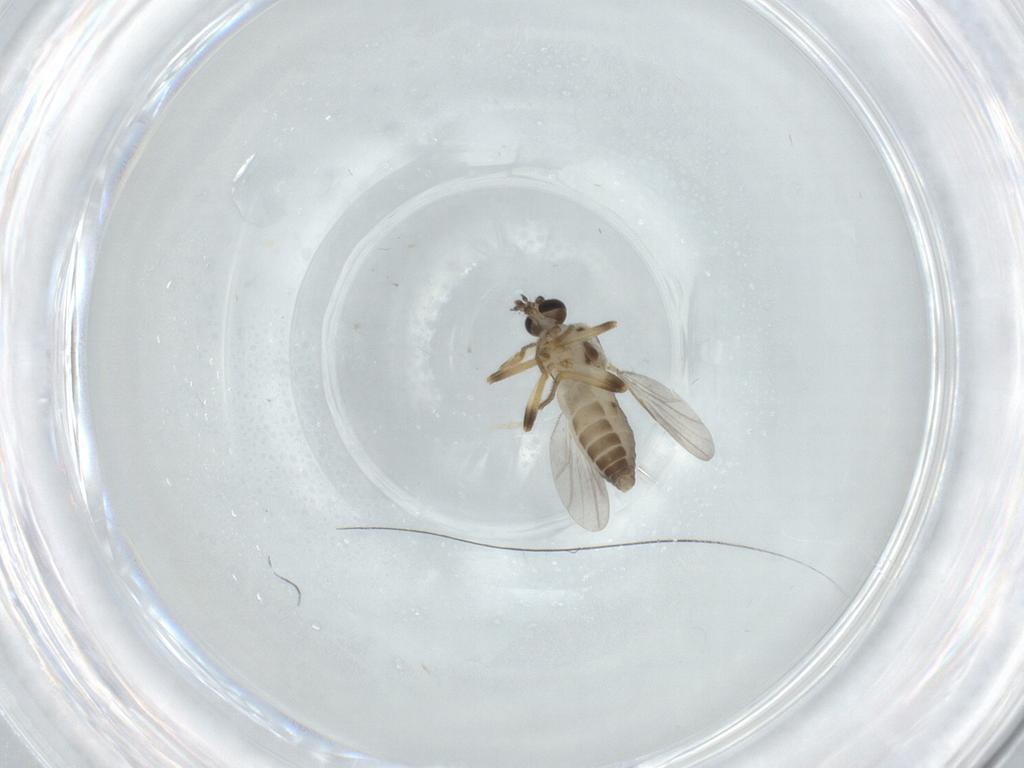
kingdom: Animalia
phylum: Arthropoda
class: Insecta
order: Diptera
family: Ceratopogonidae
